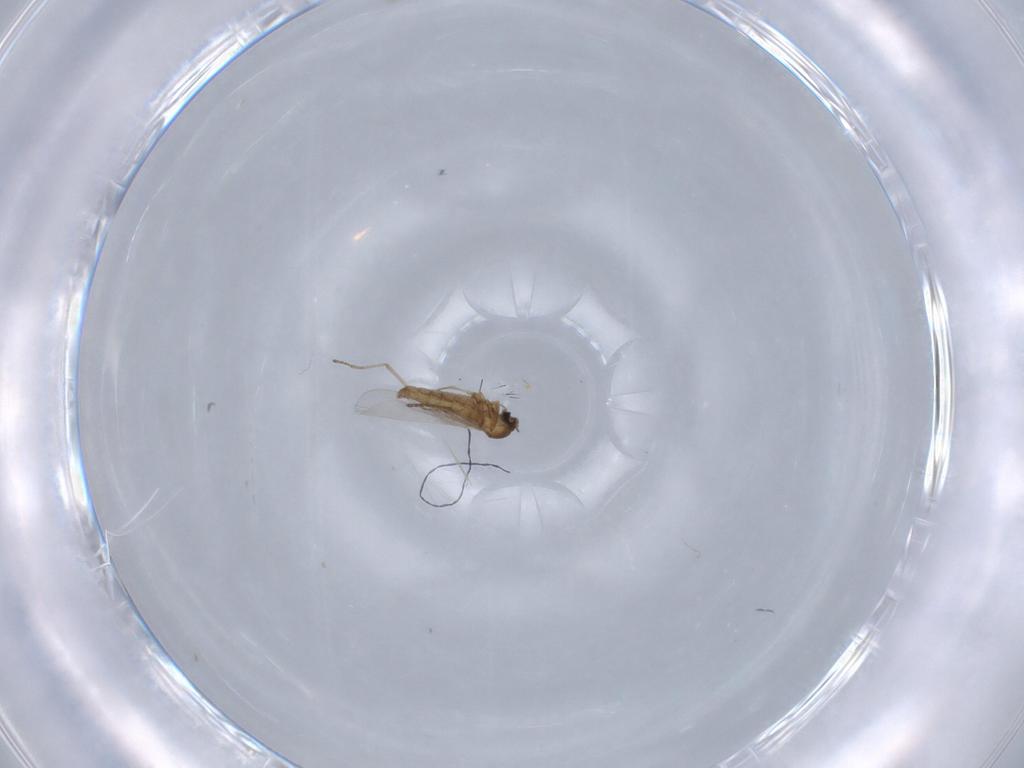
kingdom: Animalia
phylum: Arthropoda
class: Insecta
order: Diptera
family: Cecidomyiidae
